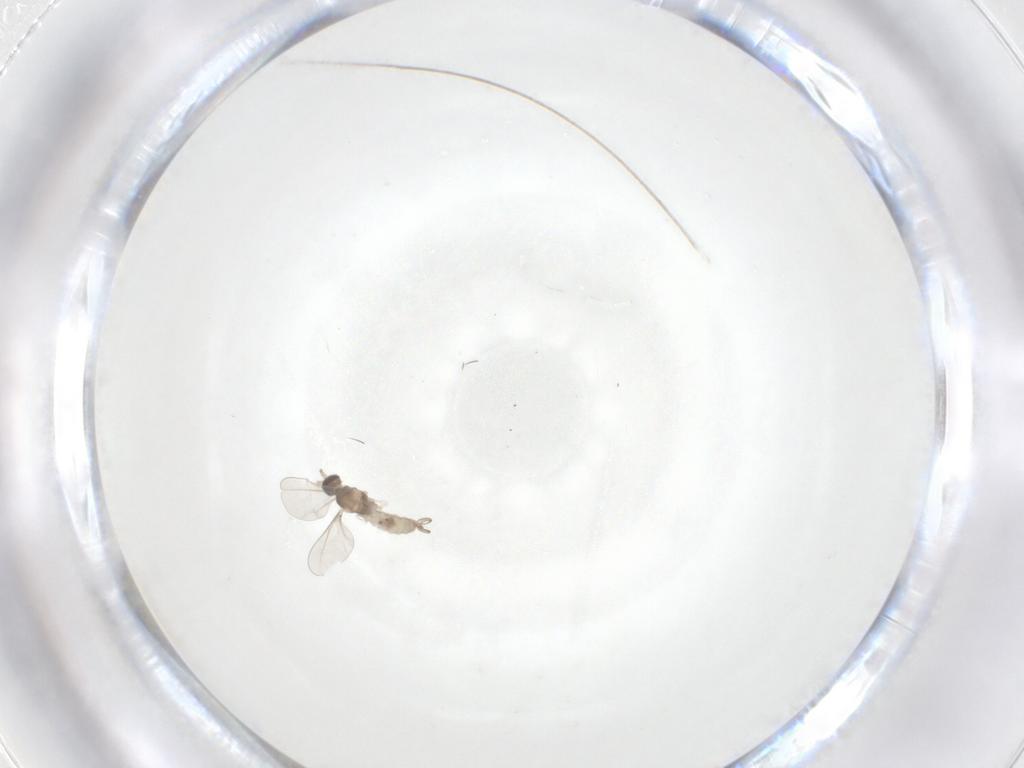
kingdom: Animalia
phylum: Arthropoda
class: Insecta
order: Diptera
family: Cecidomyiidae
